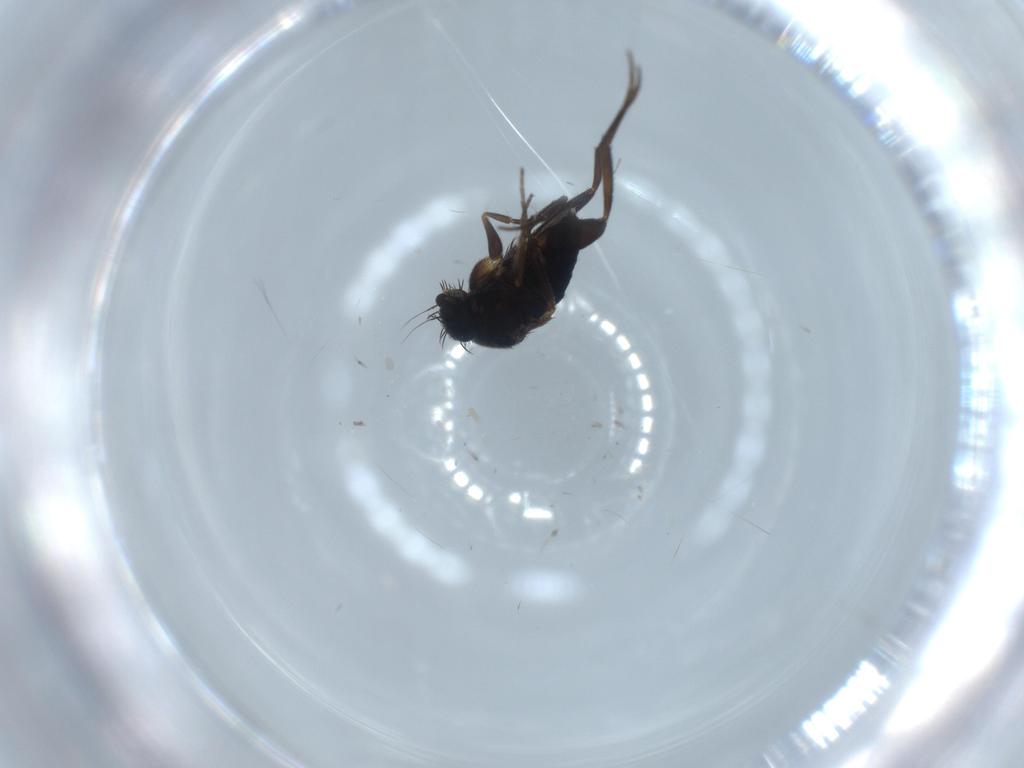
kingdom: Animalia
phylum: Arthropoda
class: Insecta
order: Diptera
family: Phoridae
